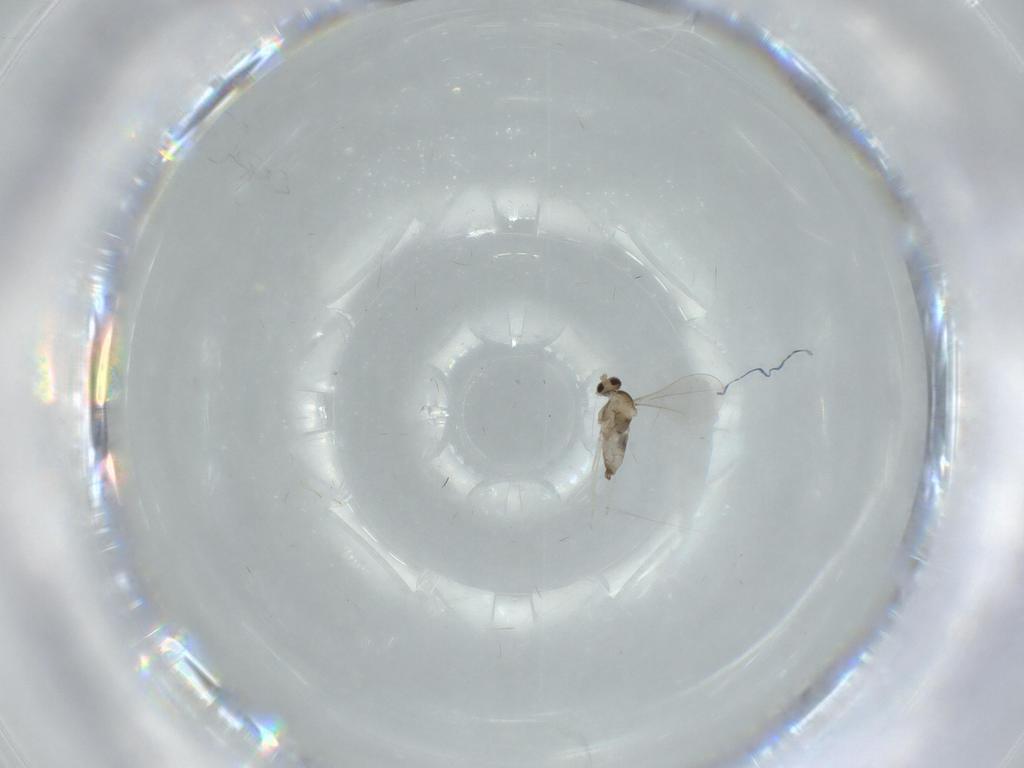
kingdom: Animalia
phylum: Arthropoda
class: Insecta
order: Diptera
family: Cecidomyiidae
